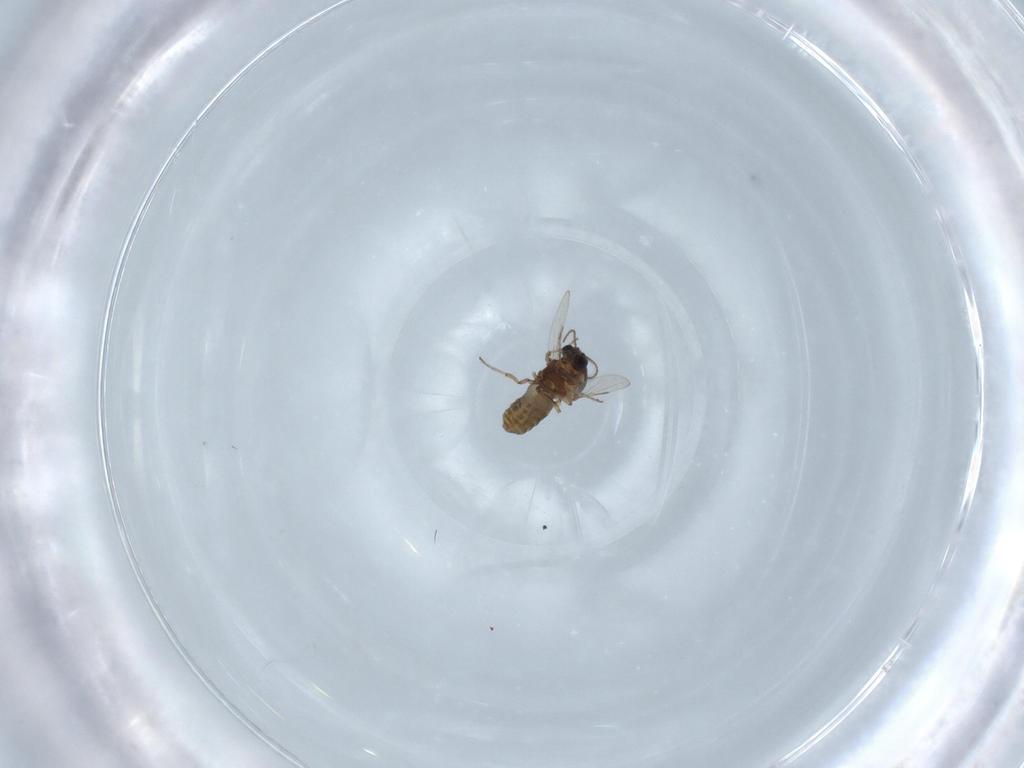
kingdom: Animalia
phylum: Arthropoda
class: Insecta
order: Diptera
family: Ceratopogonidae
